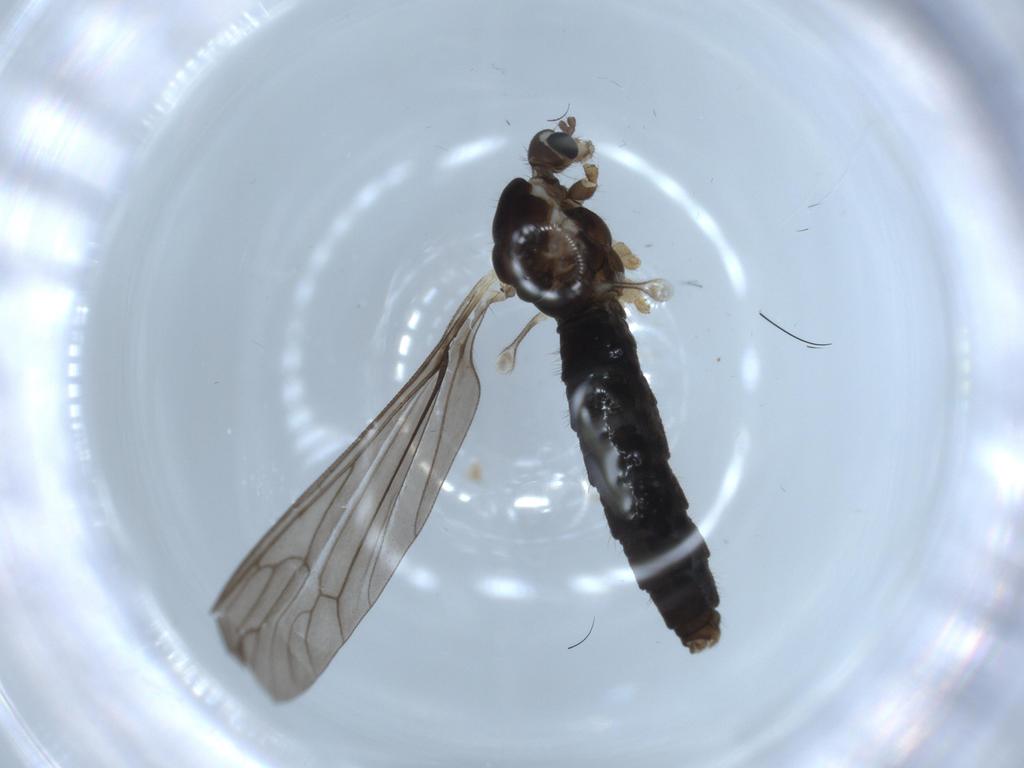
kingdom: Animalia
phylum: Arthropoda
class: Insecta
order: Diptera
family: Limoniidae
